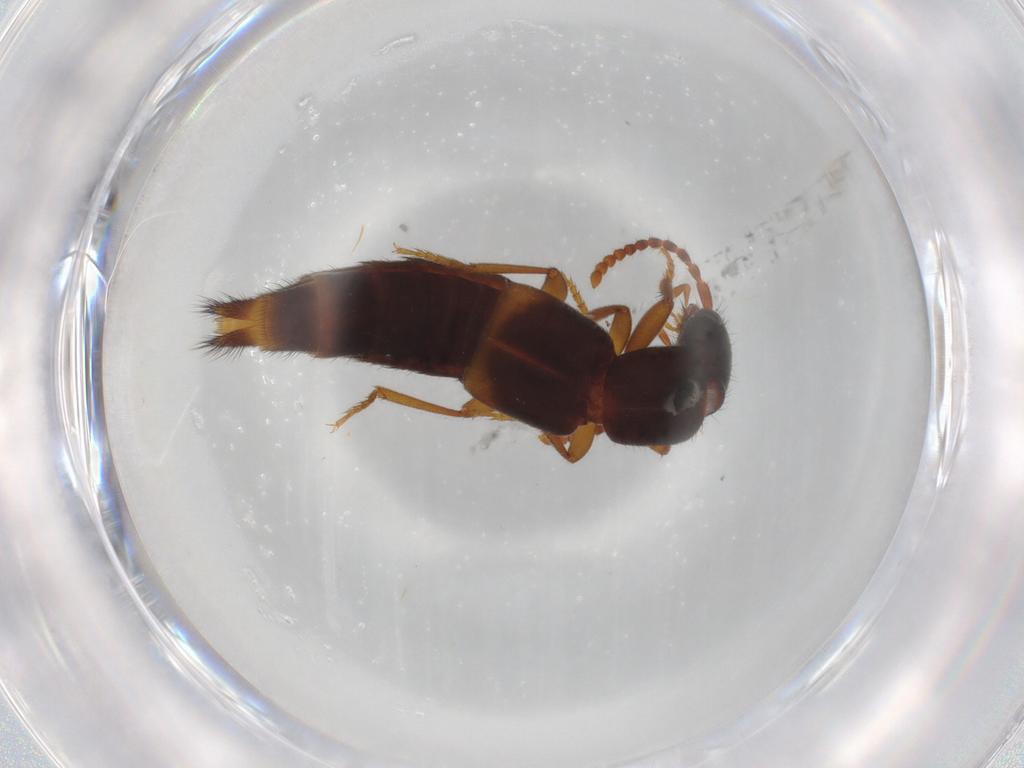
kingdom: Animalia
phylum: Arthropoda
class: Insecta
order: Coleoptera
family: Staphylinidae
